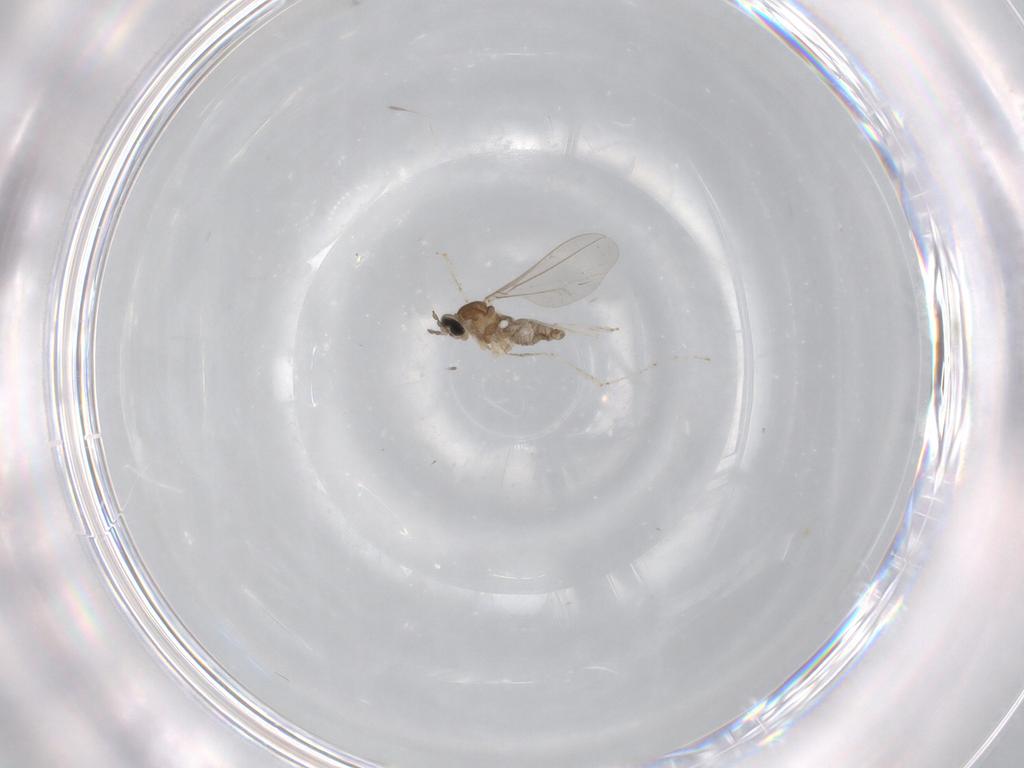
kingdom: Animalia
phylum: Arthropoda
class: Insecta
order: Diptera
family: Cecidomyiidae
